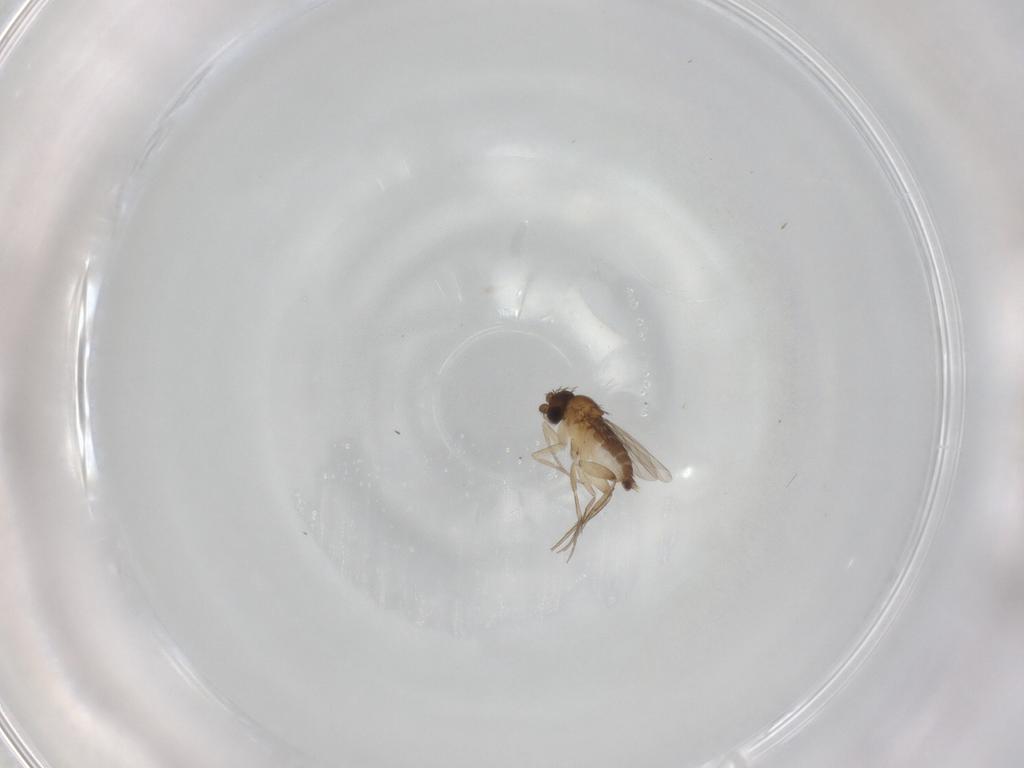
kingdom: Animalia
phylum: Arthropoda
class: Insecta
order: Diptera
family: Phoridae
